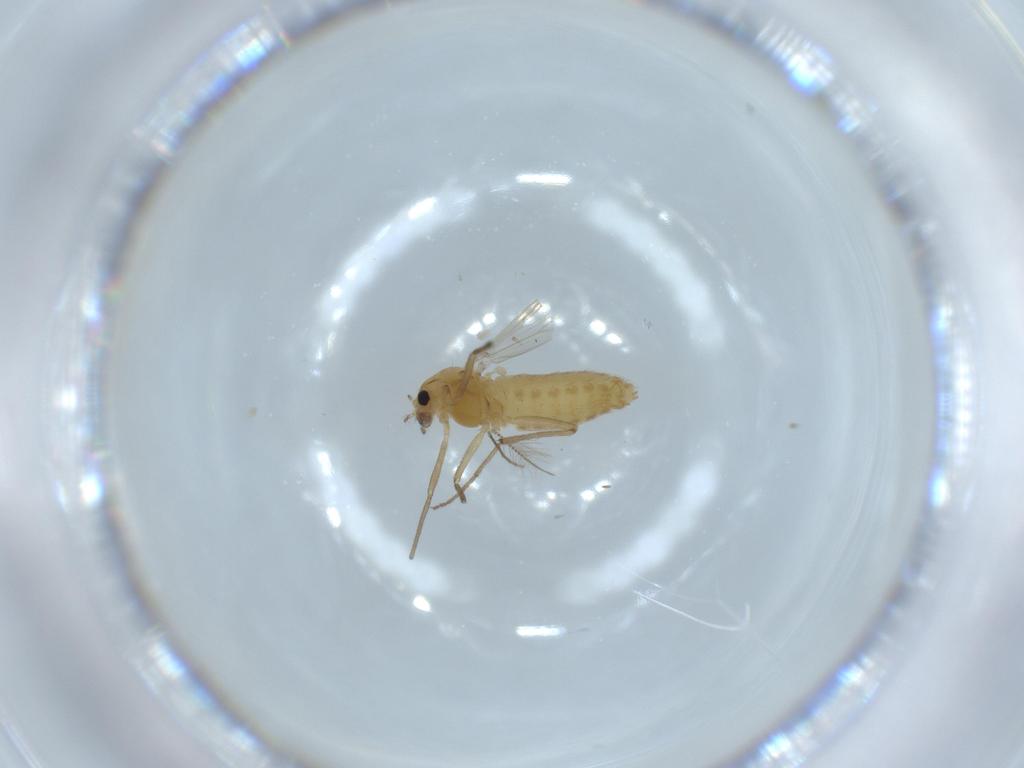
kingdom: Animalia
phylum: Arthropoda
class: Insecta
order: Diptera
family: Chironomidae
